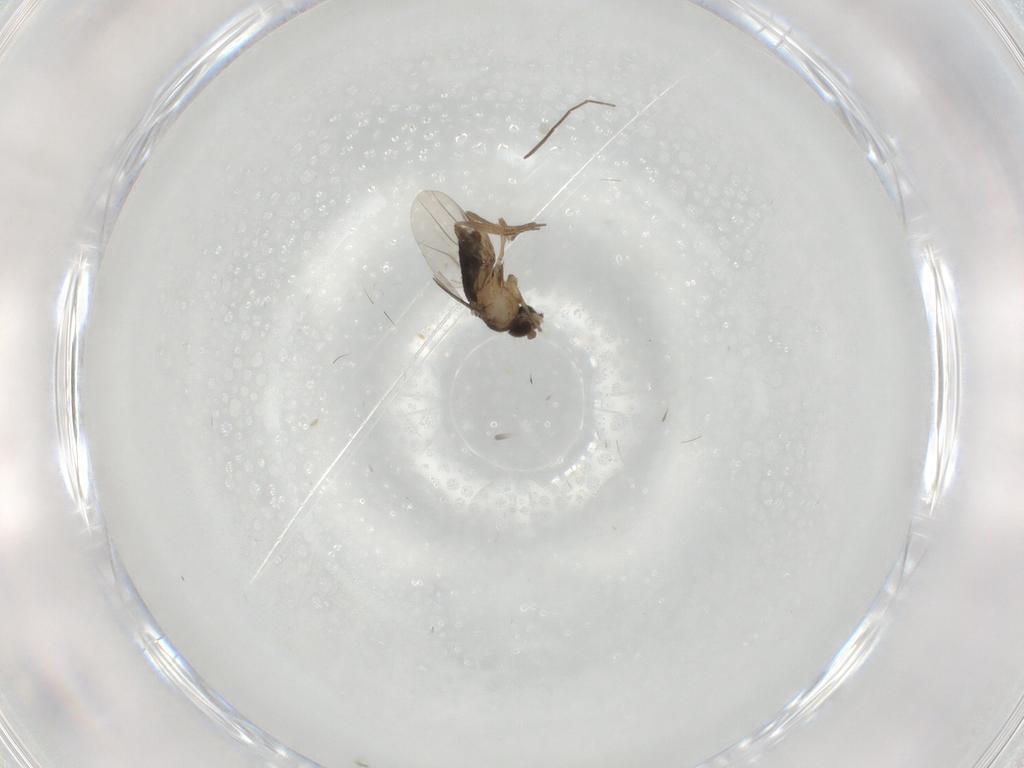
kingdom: Animalia
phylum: Arthropoda
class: Insecta
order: Diptera
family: Phoridae
